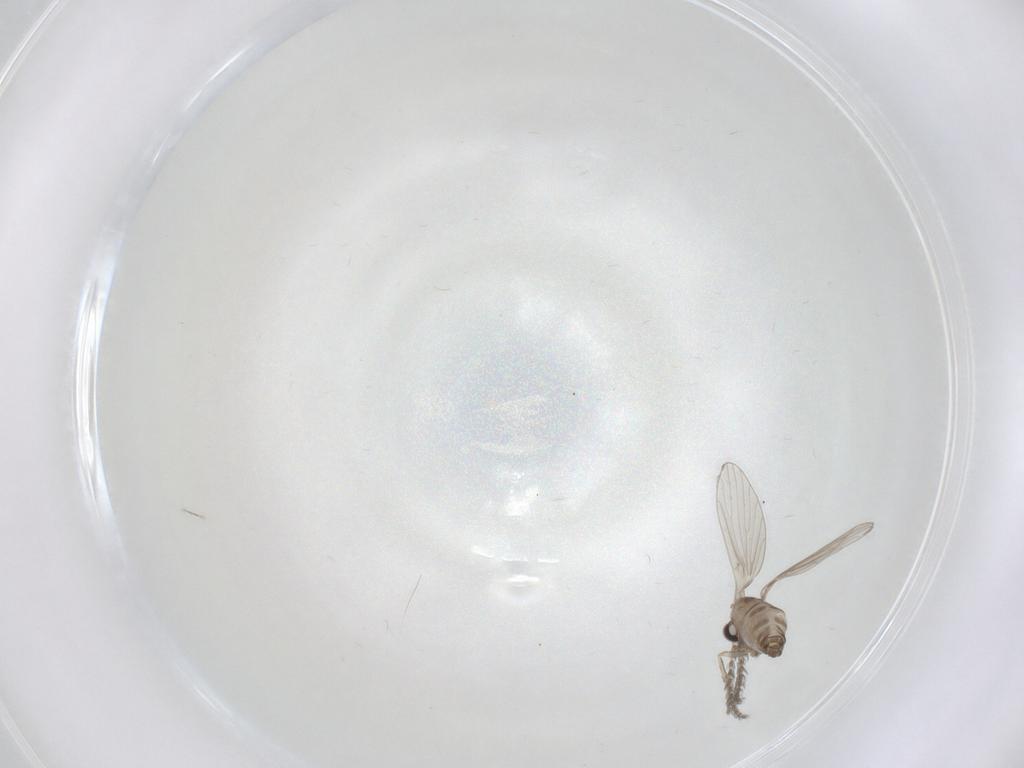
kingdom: Animalia
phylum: Arthropoda
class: Insecta
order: Diptera
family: Psychodidae
